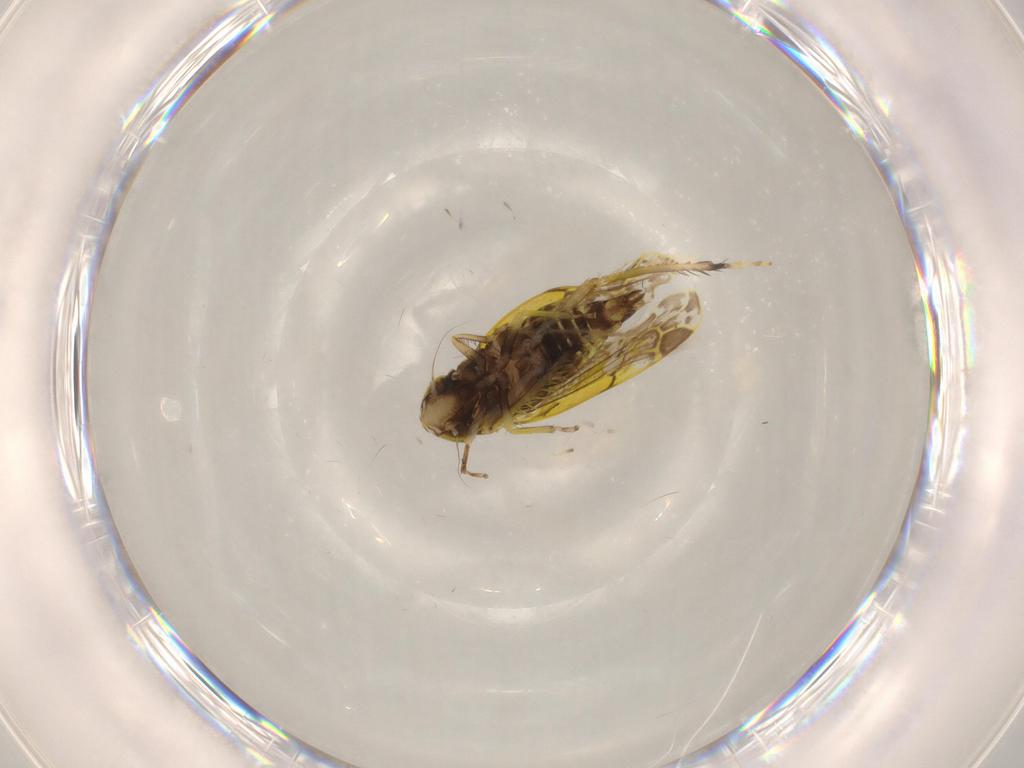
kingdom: Animalia
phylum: Arthropoda
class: Insecta
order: Hemiptera
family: Cicadellidae
